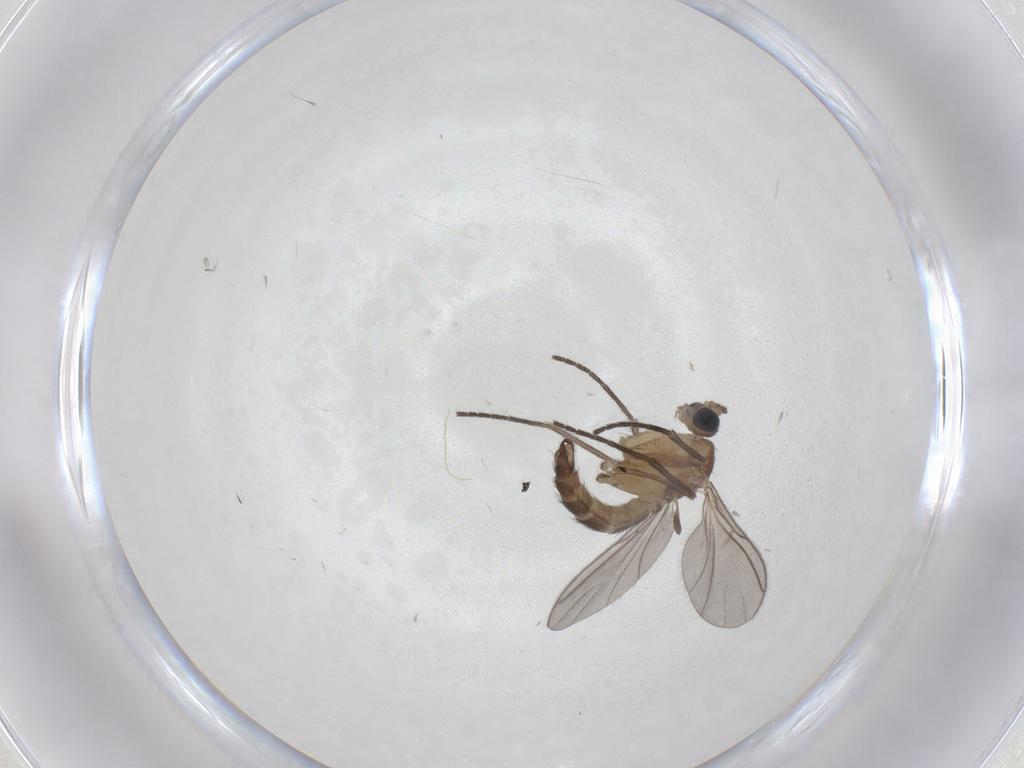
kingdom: Animalia
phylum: Arthropoda
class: Insecta
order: Diptera
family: Sciaridae
